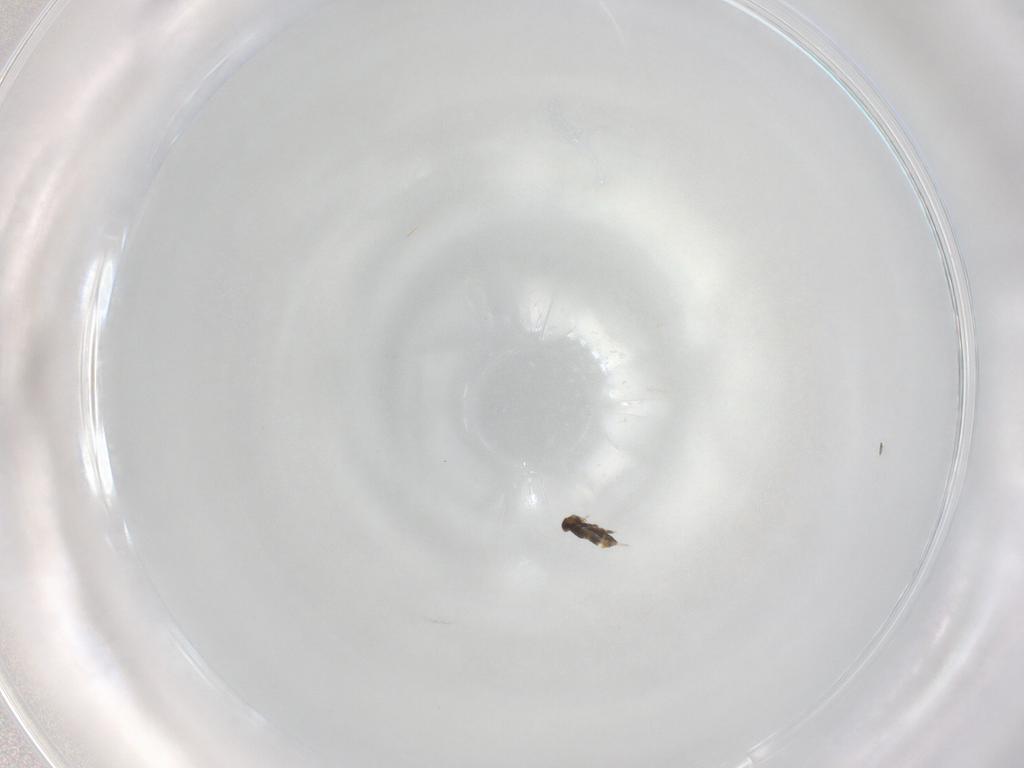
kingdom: Animalia
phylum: Arthropoda
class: Insecta
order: Hymenoptera
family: Trichogrammatidae
